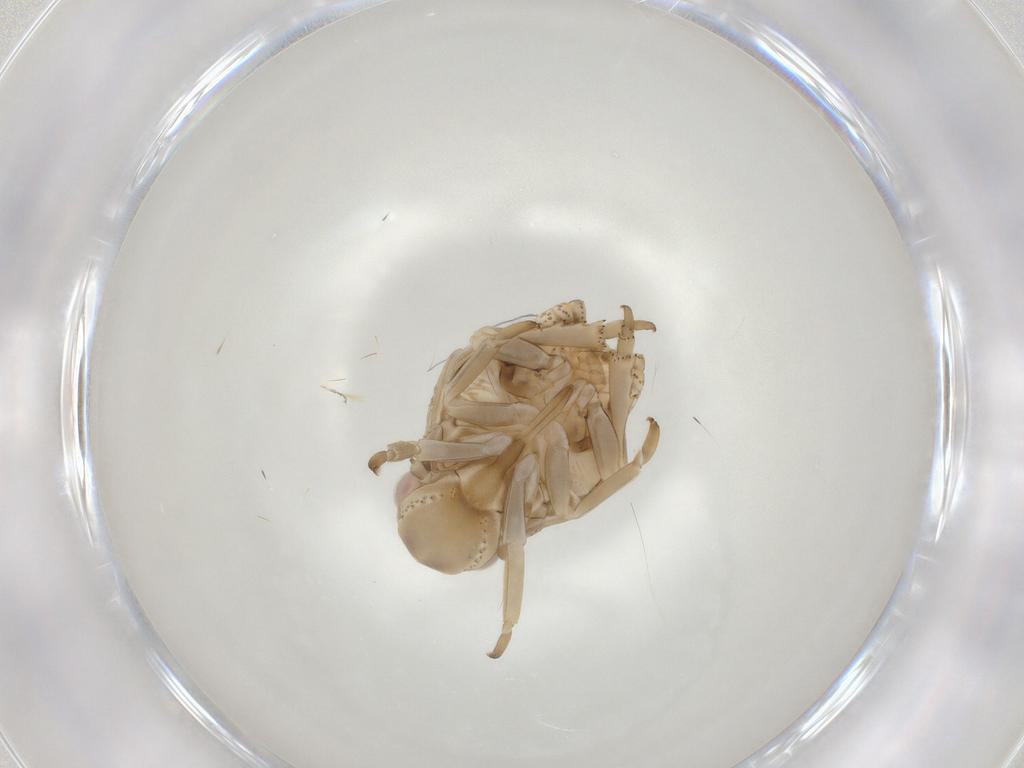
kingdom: Animalia
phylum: Arthropoda
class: Insecta
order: Hemiptera
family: Flatidae
